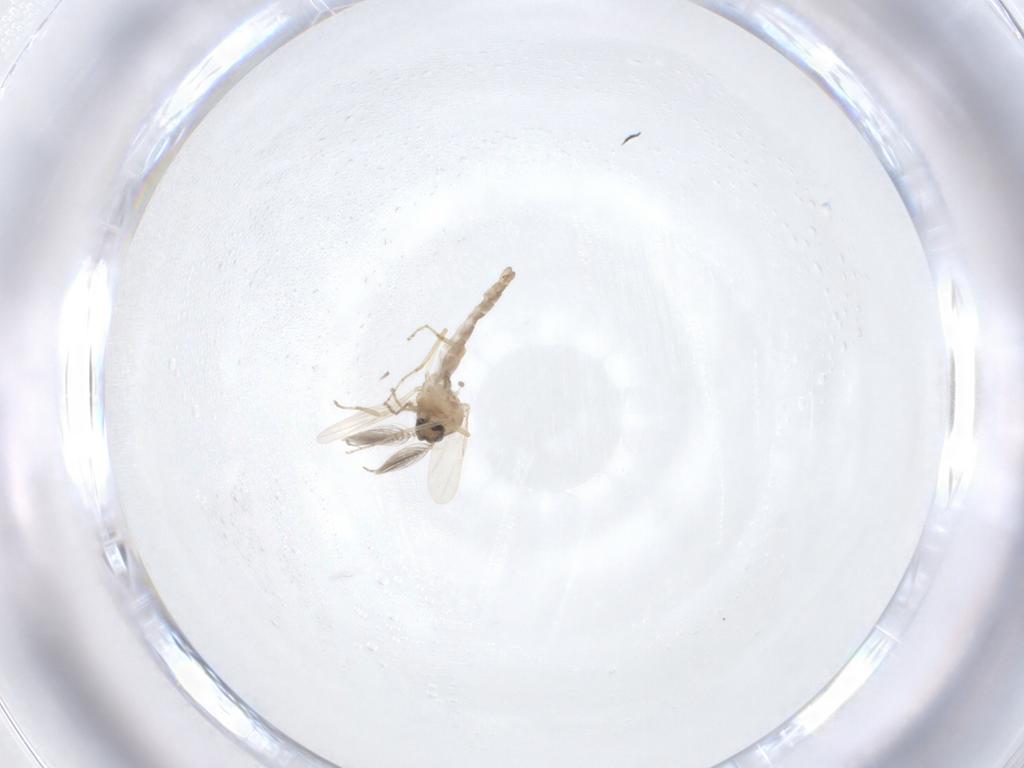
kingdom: Animalia
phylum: Arthropoda
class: Insecta
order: Diptera
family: Ceratopogonidae
